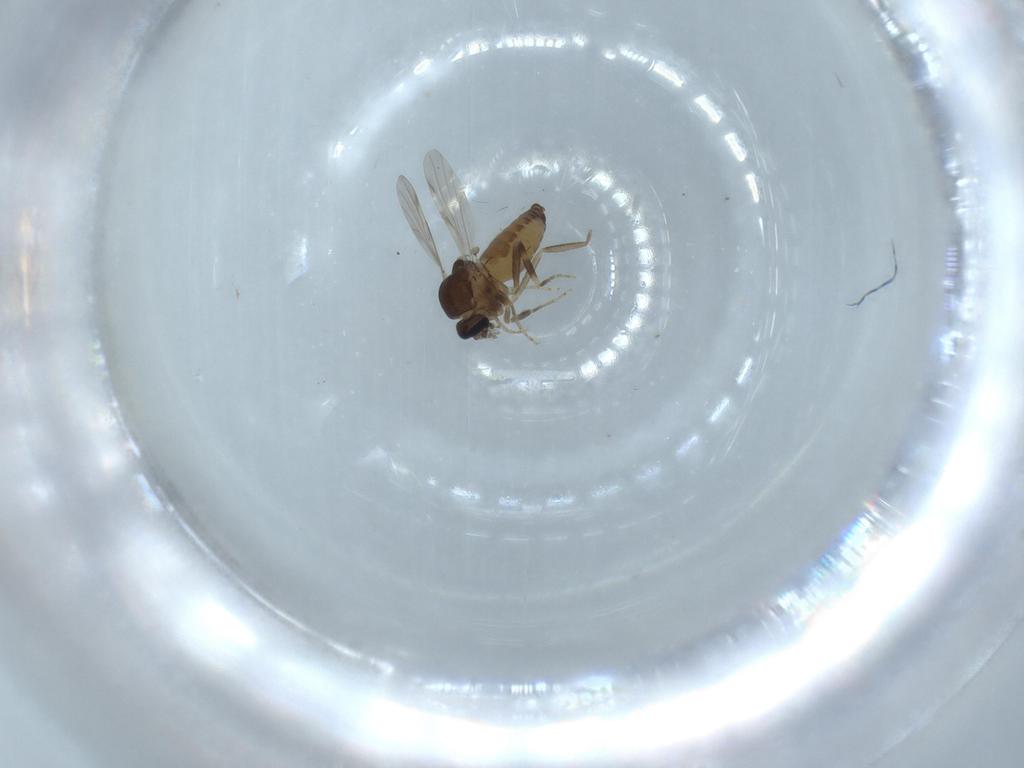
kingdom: Animalia
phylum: Arthropoda
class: Insecta
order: Diptera
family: Ceratopogonidae
